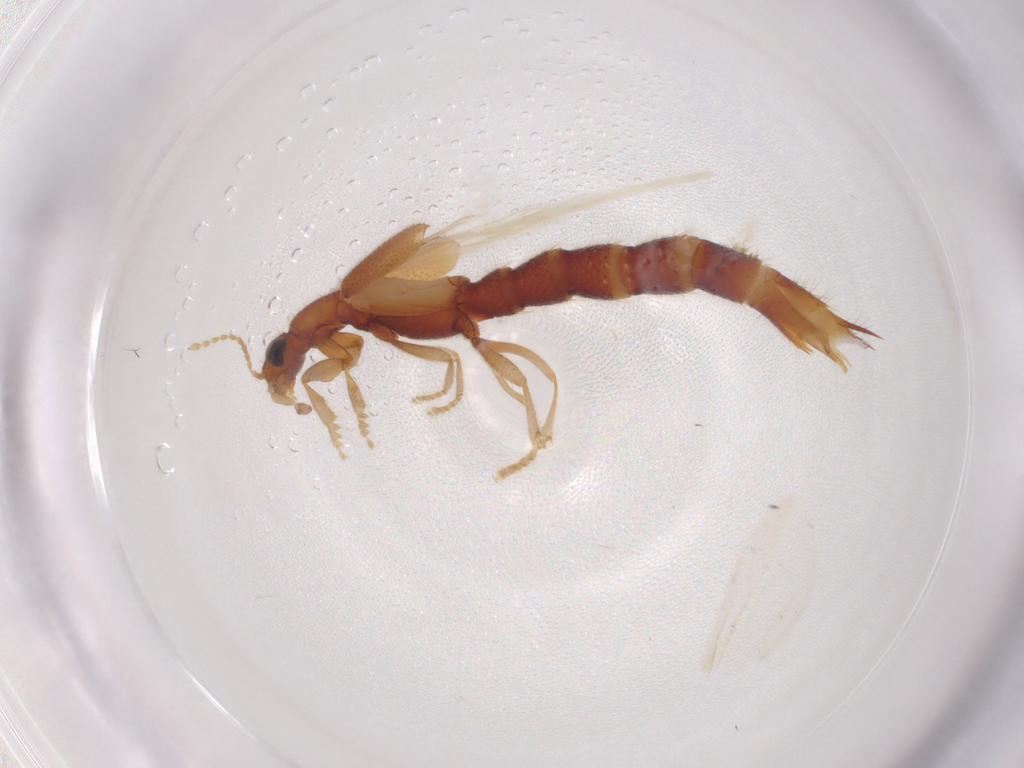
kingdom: Animalia
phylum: Arthropoda
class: Insecta
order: Coleoptera
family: Staphylinidae
